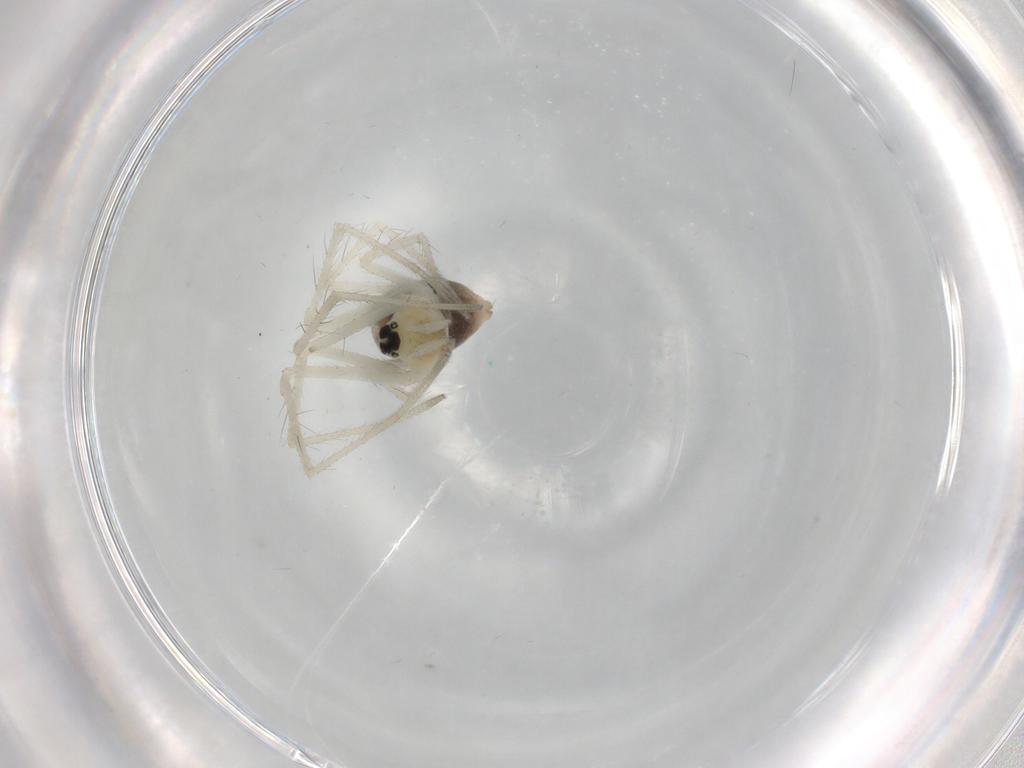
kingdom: Animalia
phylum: Arthropoda
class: Arachnida
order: Araneae
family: Linyphiidae
